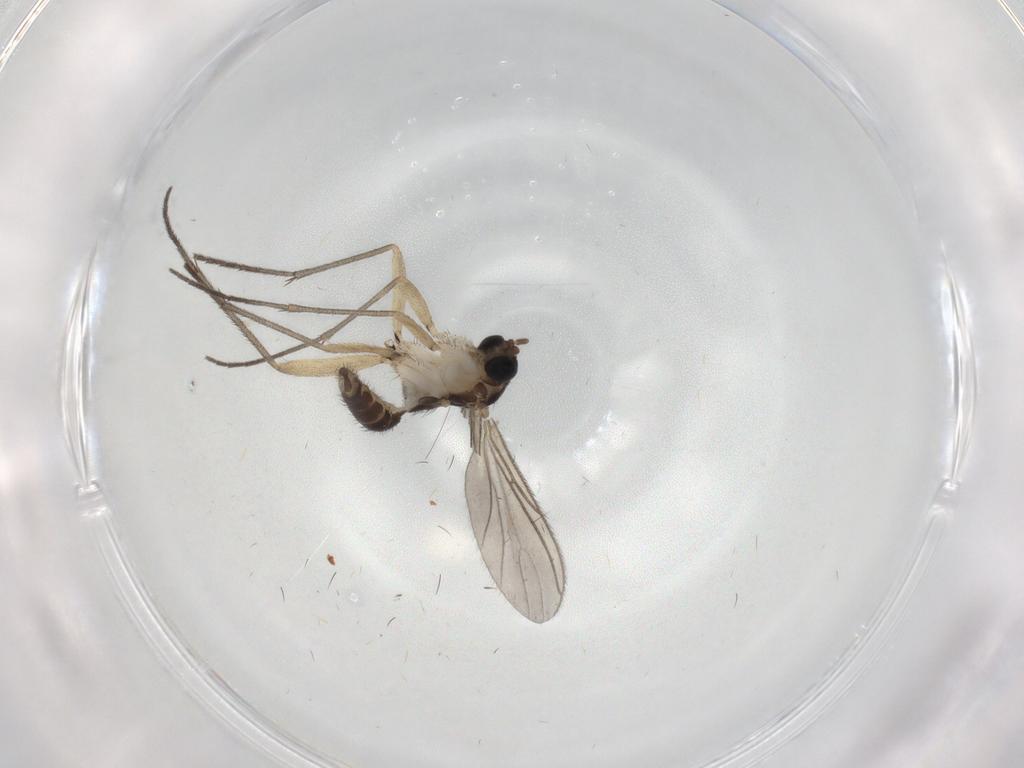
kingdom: Animalia
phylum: Arthropoda
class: Insecta
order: Diptera
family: Sciaridae
